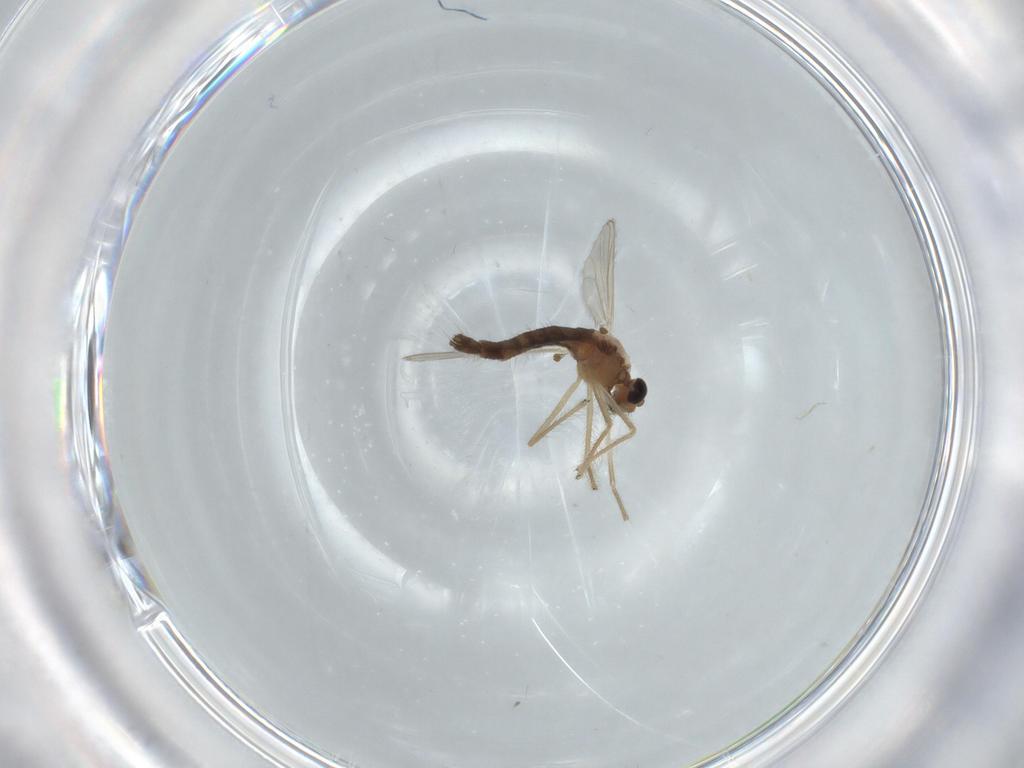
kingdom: Animalia
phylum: Arthropoda
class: Insecta
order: Diptera
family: Chironomidae
